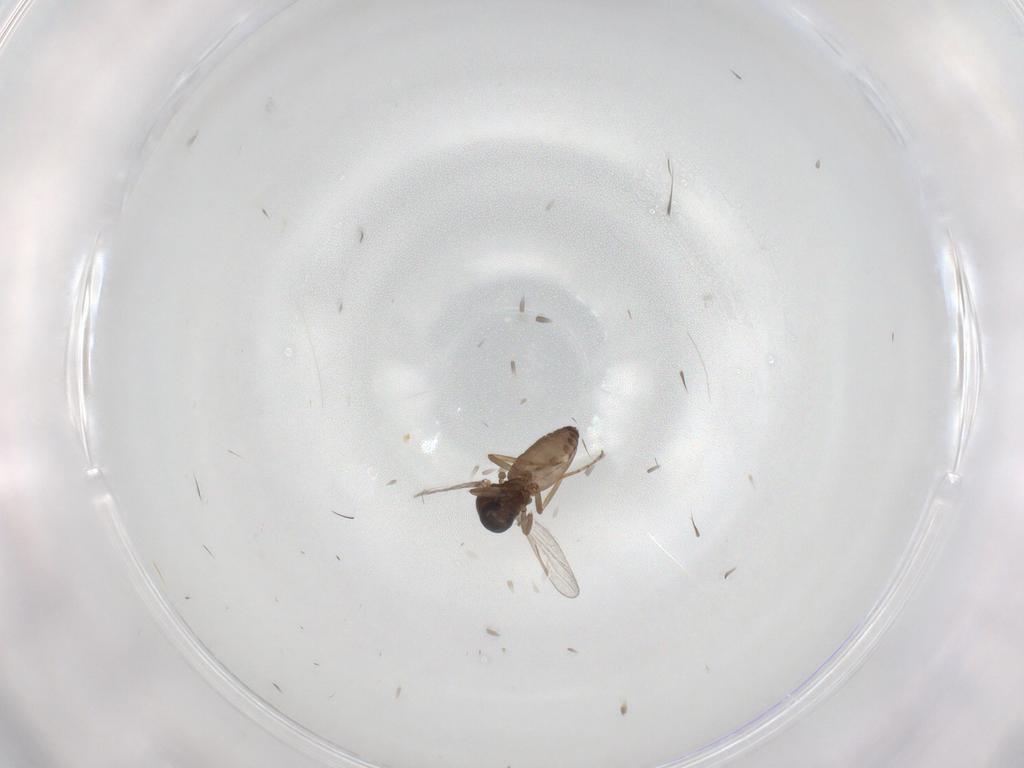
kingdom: Animalia
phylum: Arthropoda
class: Insecta
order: Diptera
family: Ceratopogonidae
